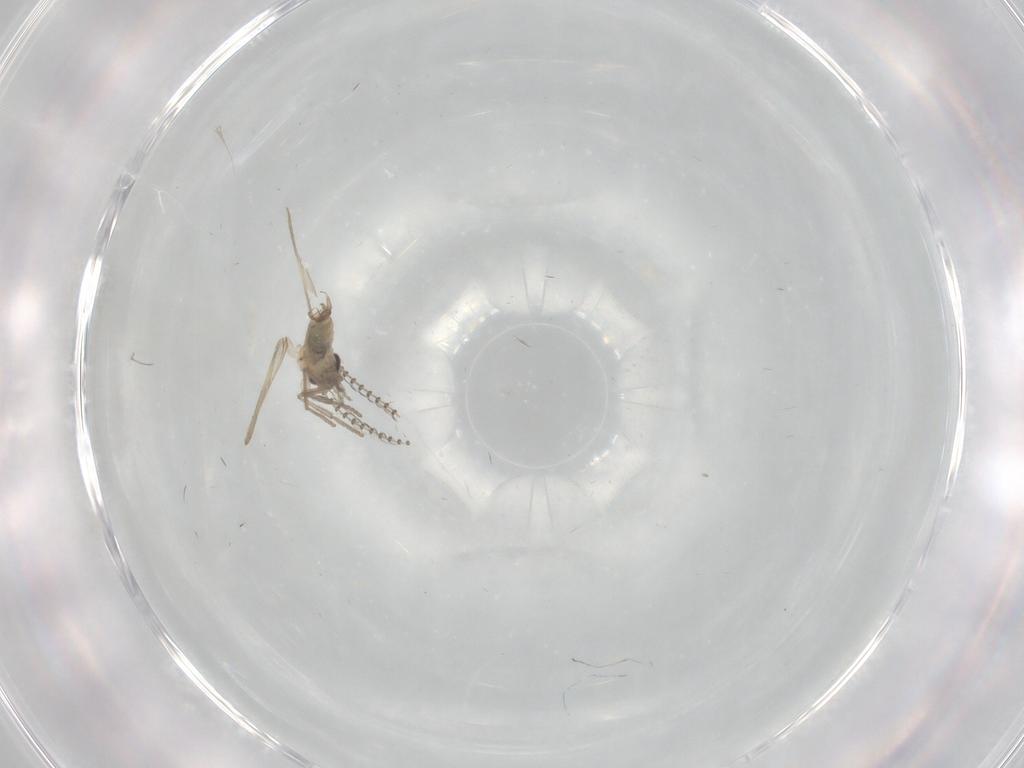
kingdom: Animalia
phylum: Arthropoda
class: Insecta
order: Diptera
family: Psychodidae
